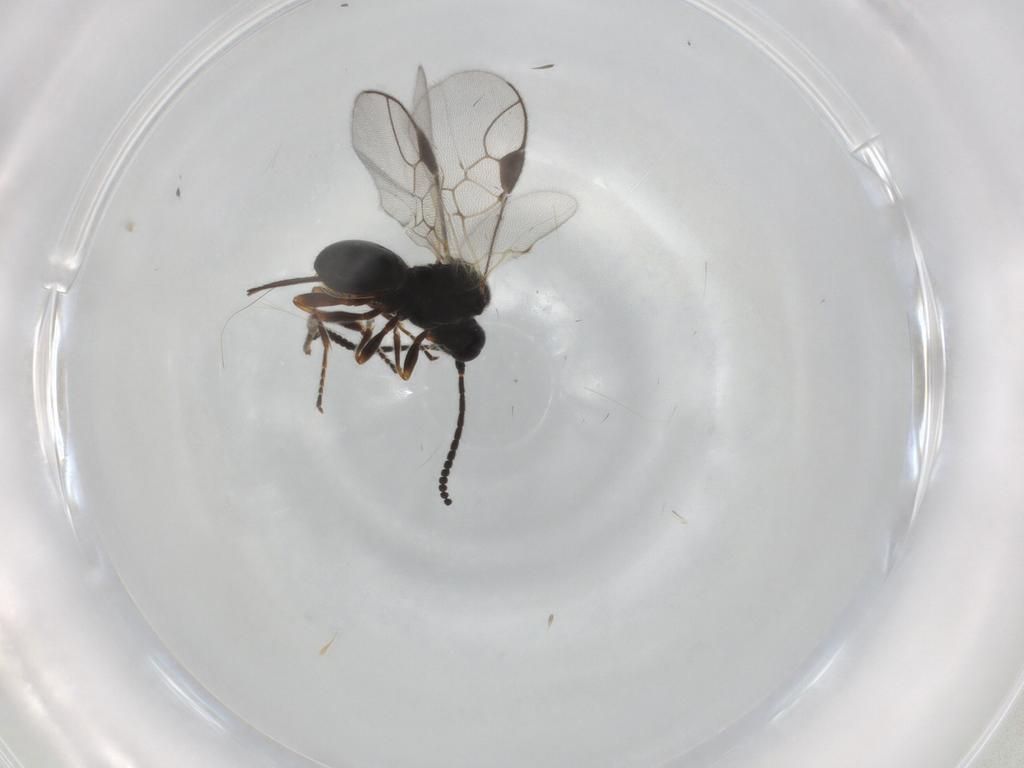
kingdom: Animalia
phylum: Arthropoda
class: Insecta
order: Hymenoptera
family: Braconidae
